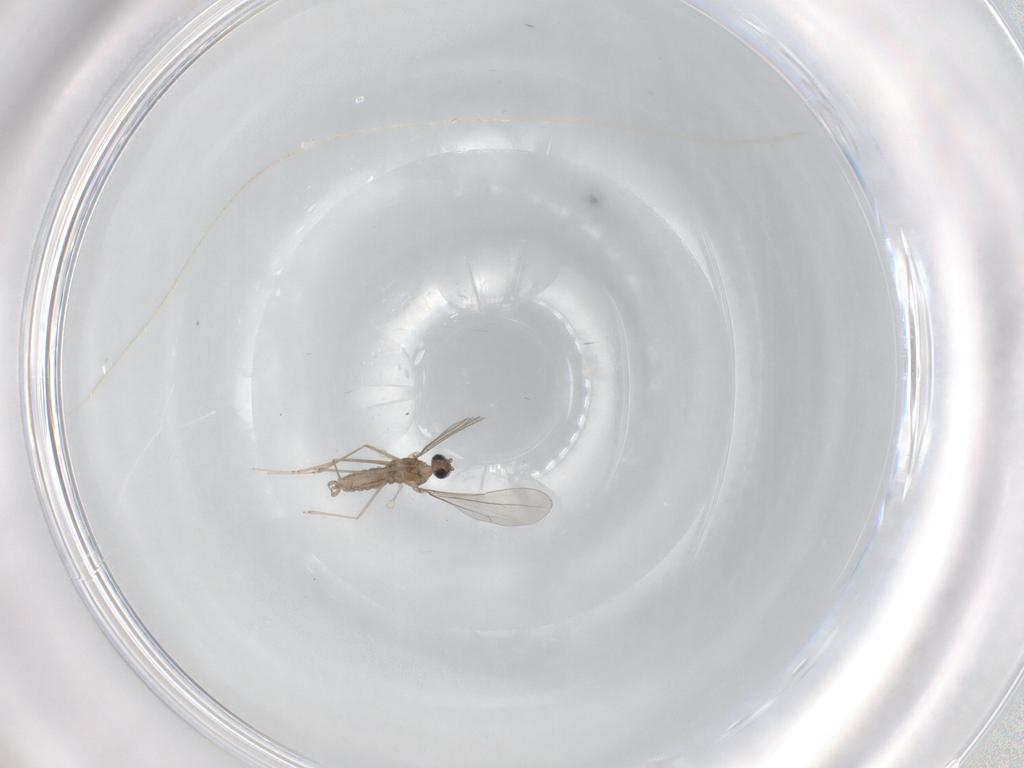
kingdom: Animalia
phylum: Arthropoda
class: Insecta
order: Diptera
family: Cecidomyiidae
